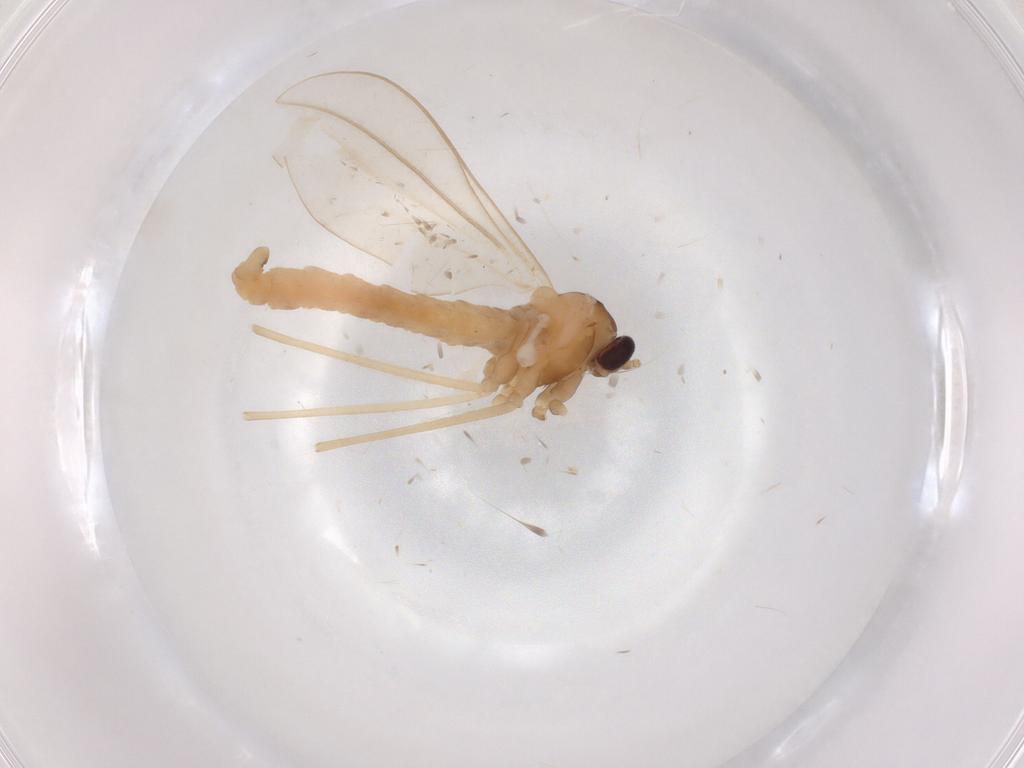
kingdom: Animalia
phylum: Arthropoda
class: Insecta
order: Diptera
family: Cecidomyiidae
